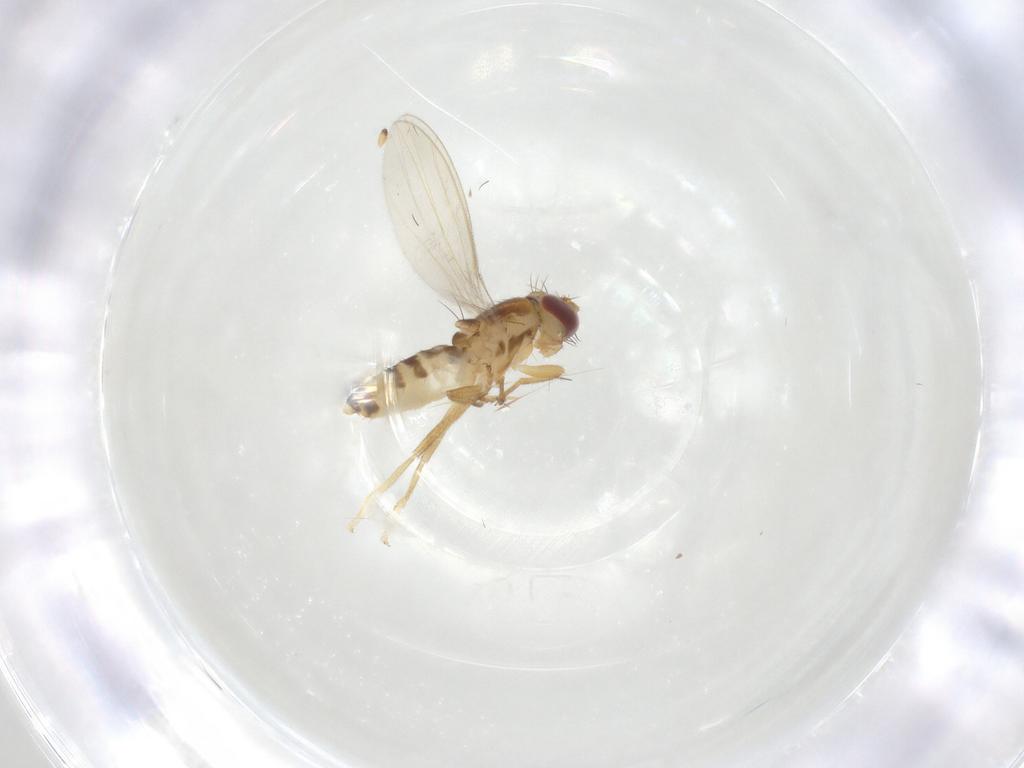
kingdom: Animalia
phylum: Arthropoda
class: Insecta
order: Diptera
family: Periscelididae
